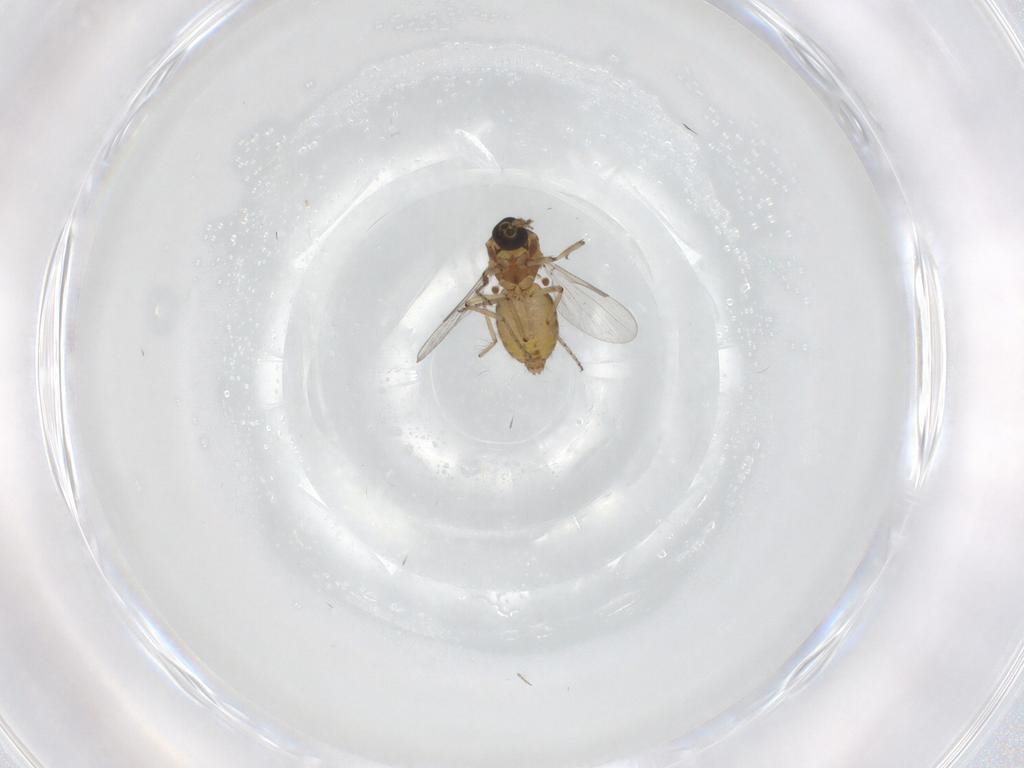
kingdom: Animalia
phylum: Arthropoda
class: Insecta
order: Diptera
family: Ceratopogonidae
